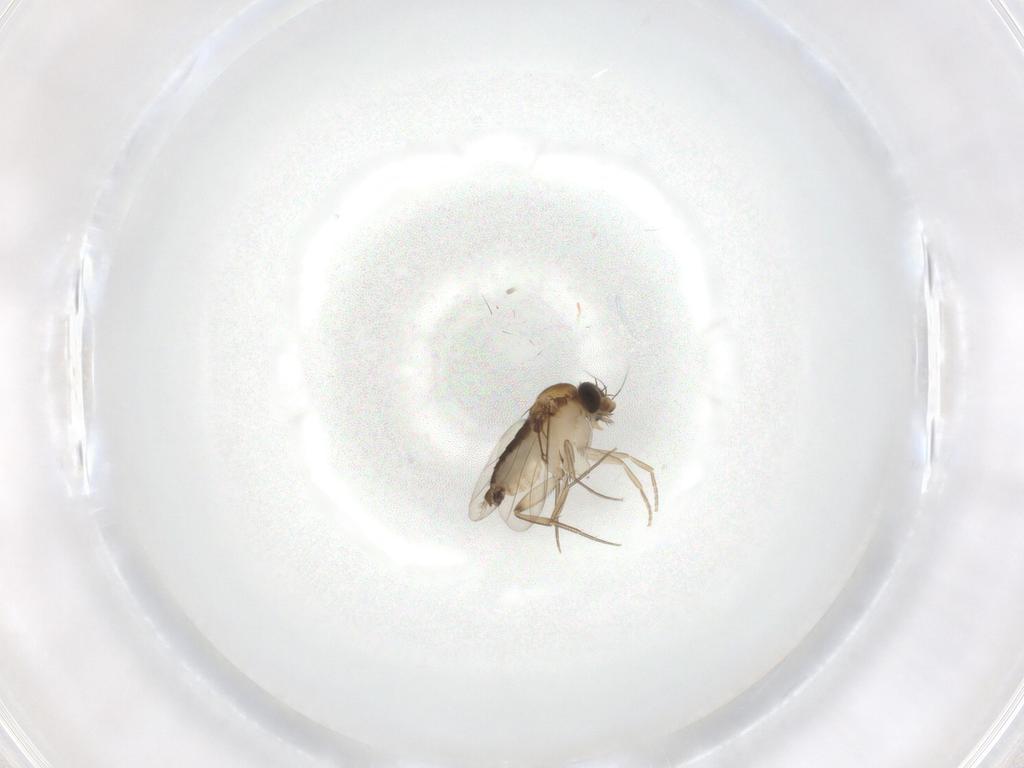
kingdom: Animalia
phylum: Arthropoda
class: Insecta
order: Diptera
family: Phoridae
